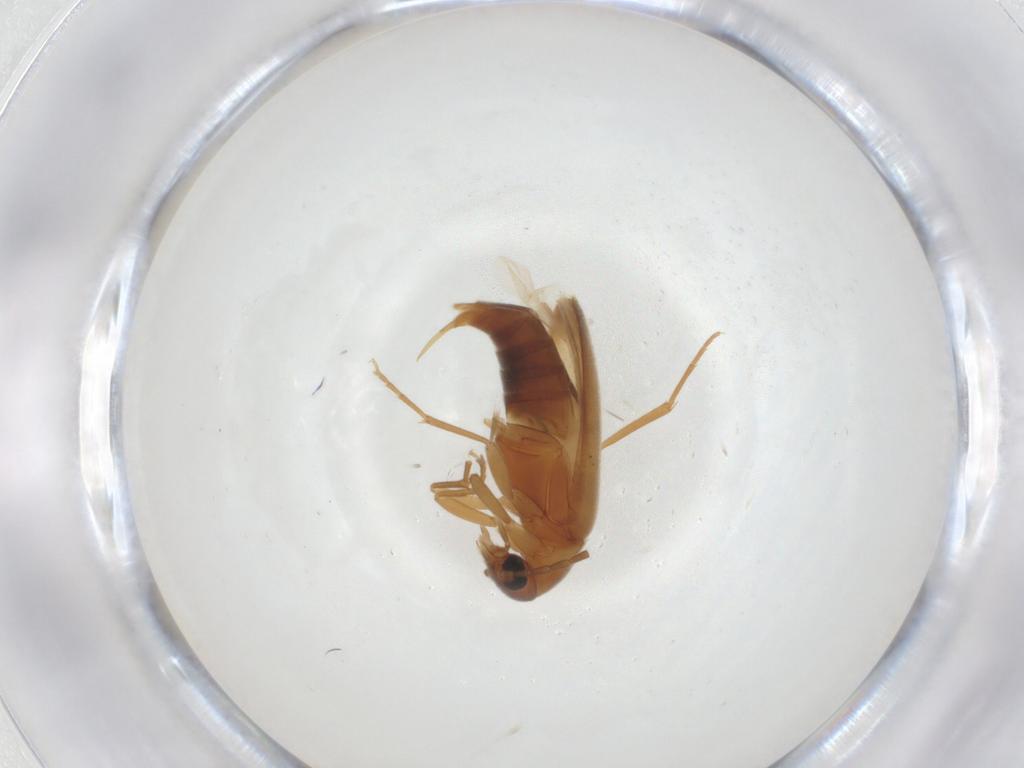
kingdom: Animalia
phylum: Arthropoda
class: Insecta
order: Coleoptera
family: Scraptiidae
